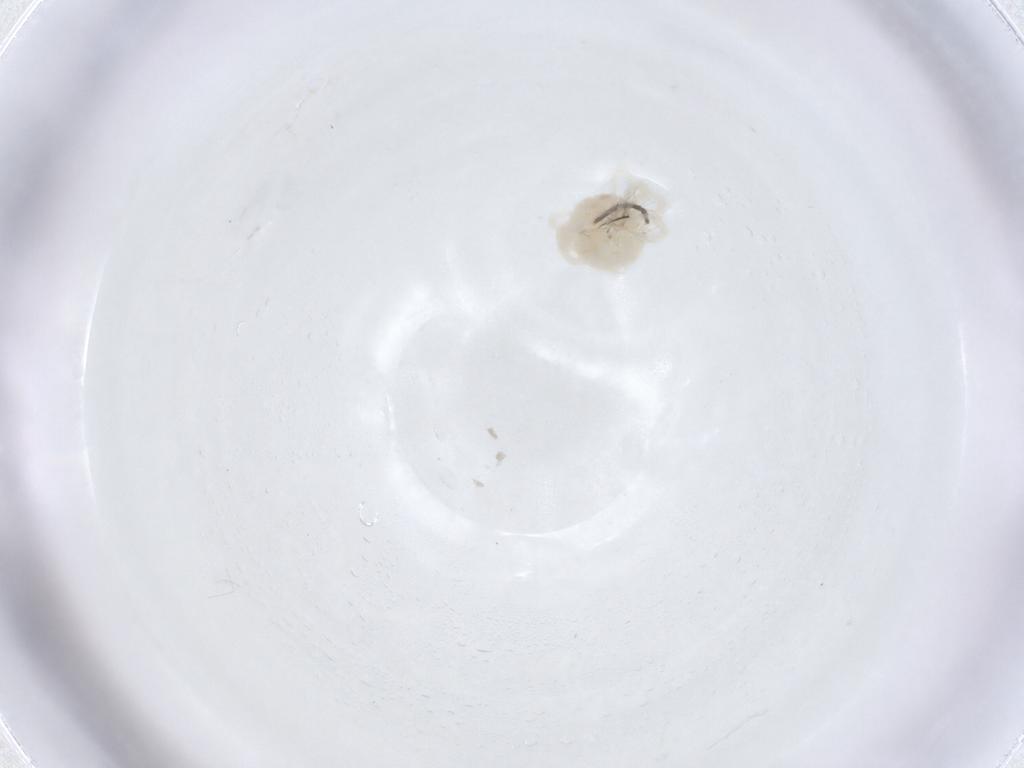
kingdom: Animalia
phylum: Arthropoda
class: Arachnida
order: Trombidiformes
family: Anystidae
